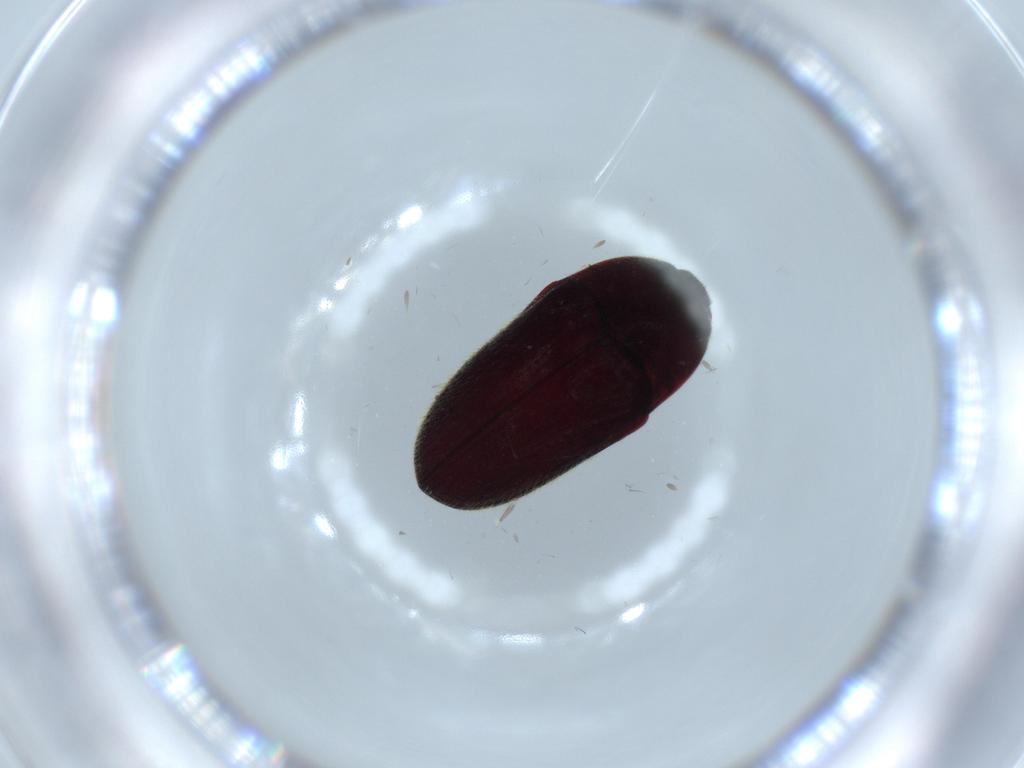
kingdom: Animalia
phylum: Arthropoda
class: Insecta
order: Coleoptera
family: Throscidae
